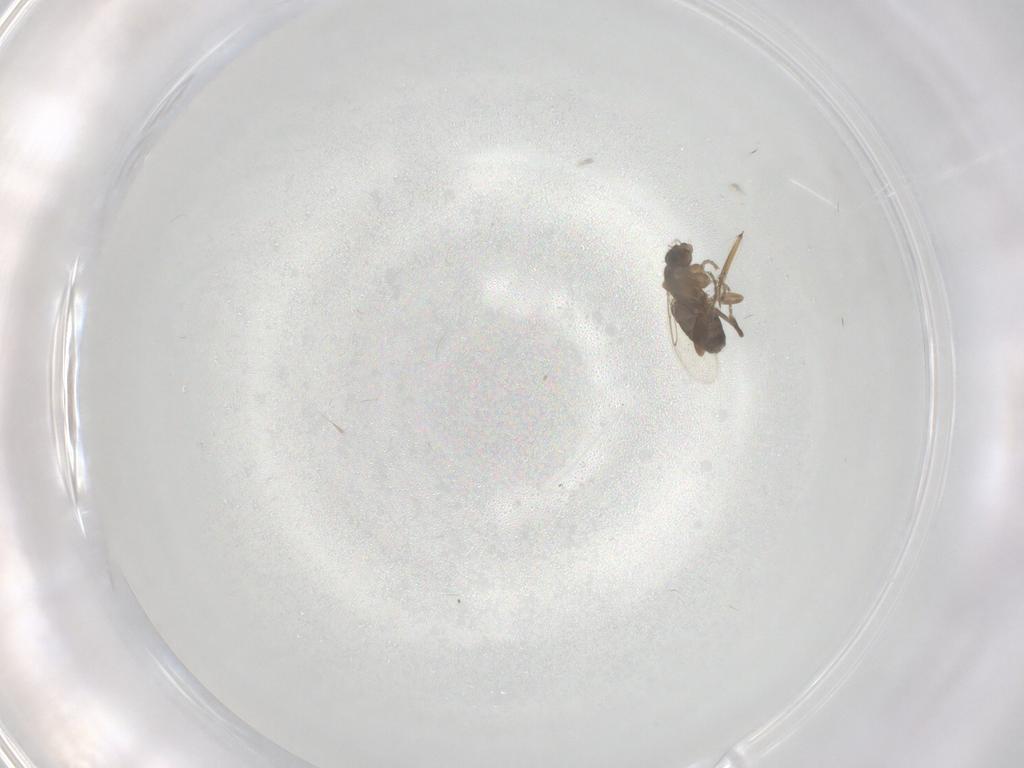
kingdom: Animalia
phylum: Arthropoda
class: Insecta
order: Diptera
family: Phoridae
